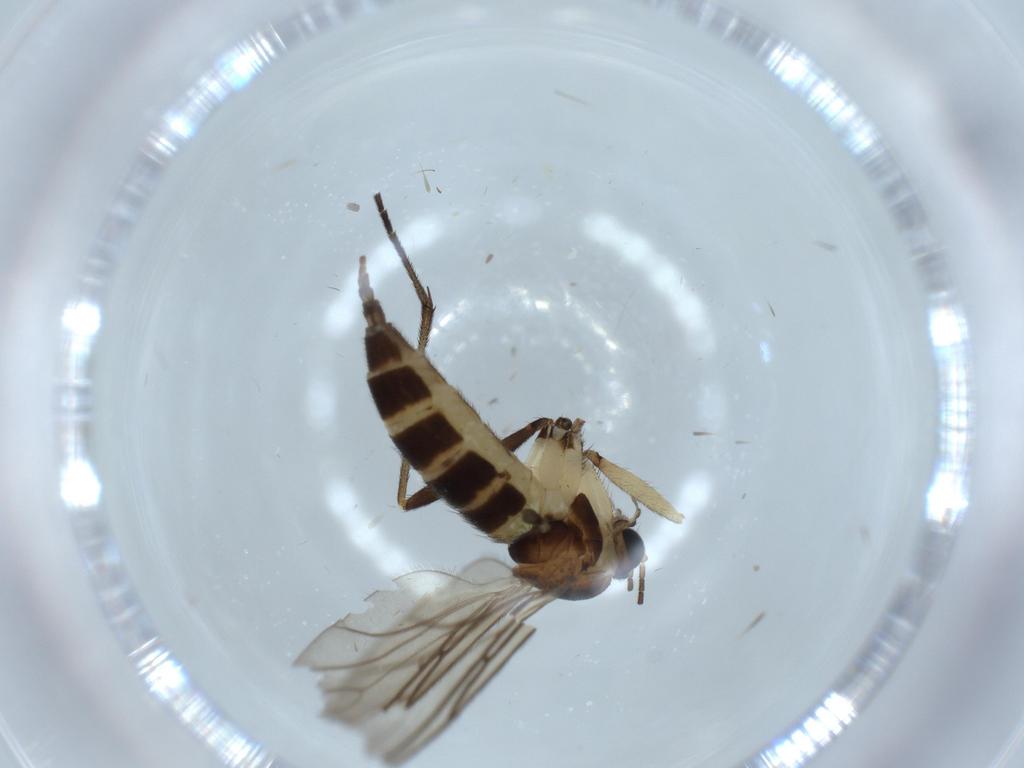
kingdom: Animalia
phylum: Arthropoda
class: Insecta
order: Diptera
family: Sciaridae
